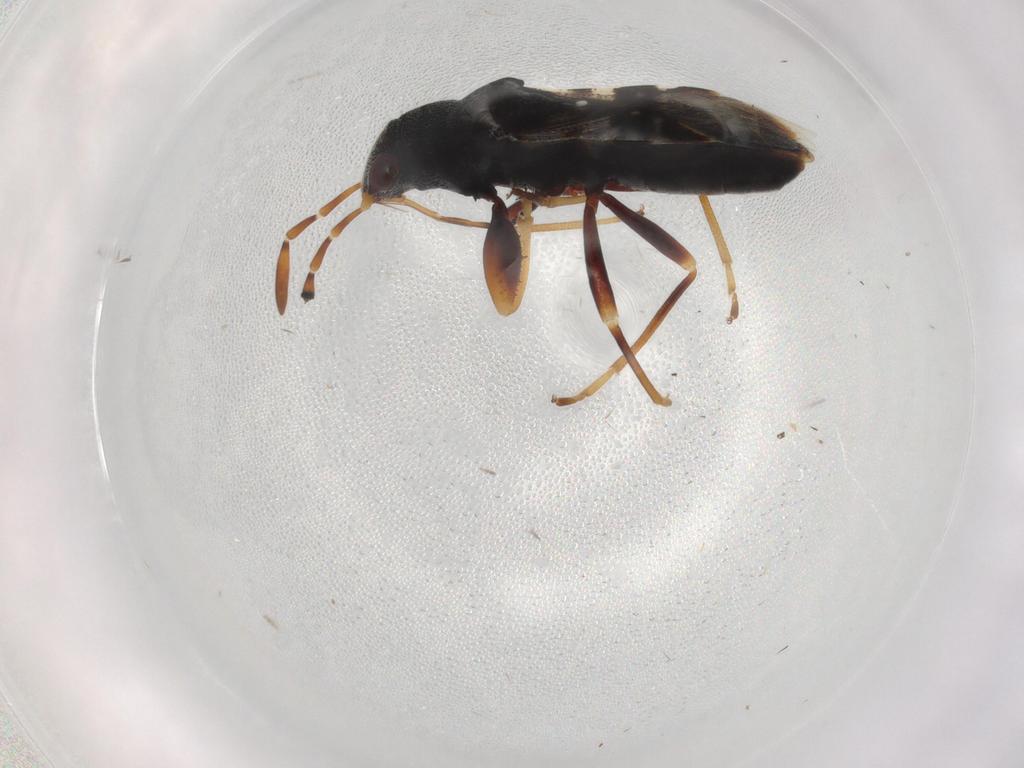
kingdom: Animalia
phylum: Arthropoda
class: Insecta
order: Hemiptera
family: Rhyparochromidae
